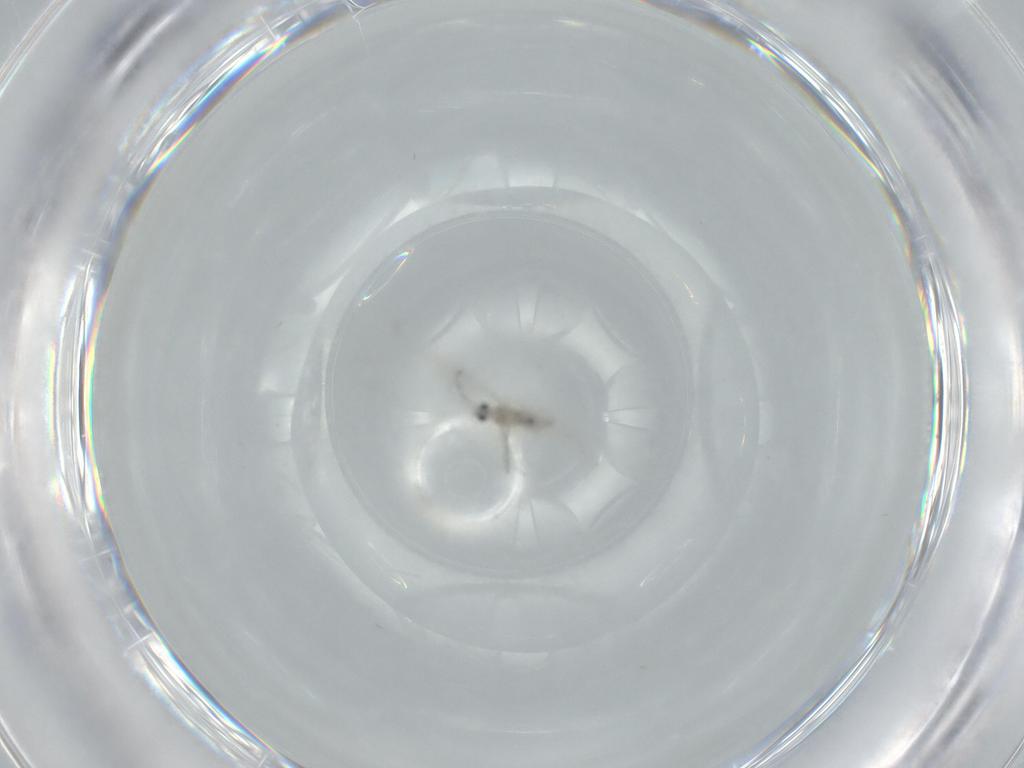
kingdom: Animalia
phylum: Arthropoda
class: Insecta
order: Diptera
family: Cecidomyiidae
